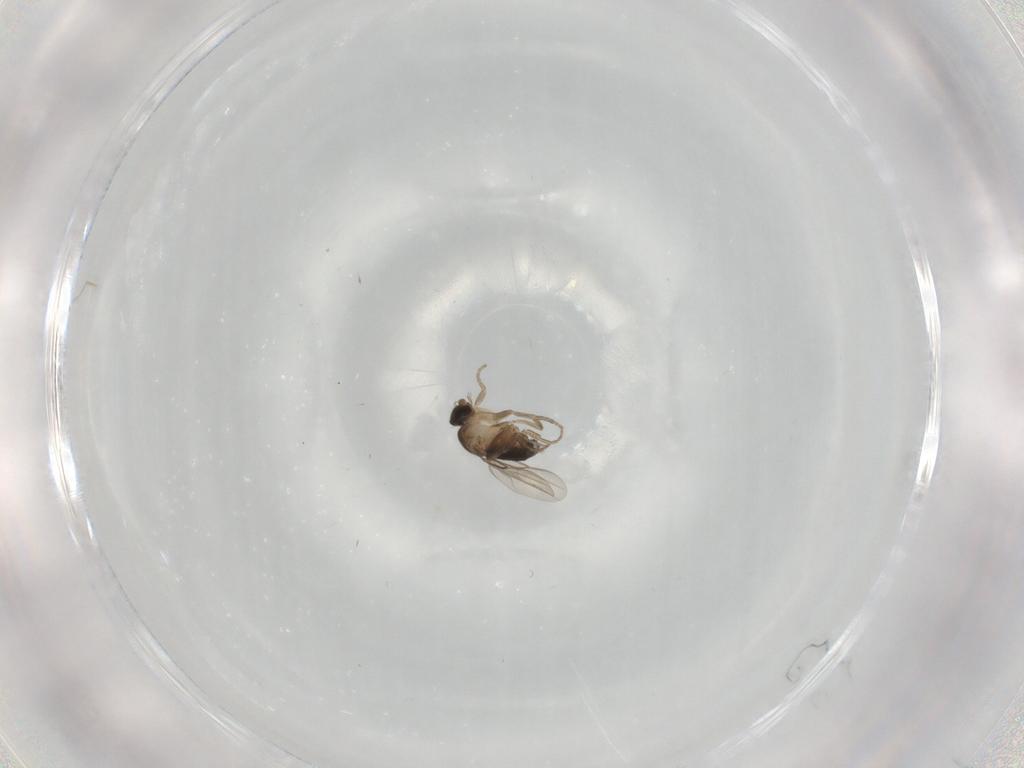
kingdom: Animalia
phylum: Arthropoda
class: Insecta
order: Diptera
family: Phoridae
